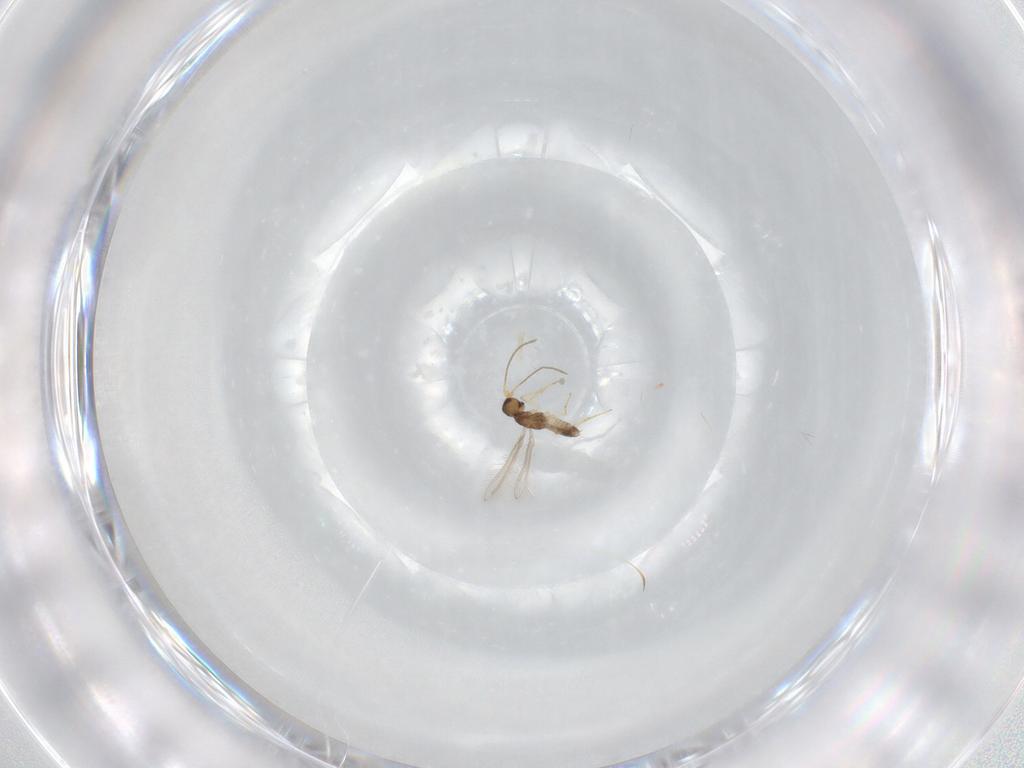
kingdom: Animalia
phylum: Arthropoda
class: Insecta
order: Hymenoptera
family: Mymaridae
